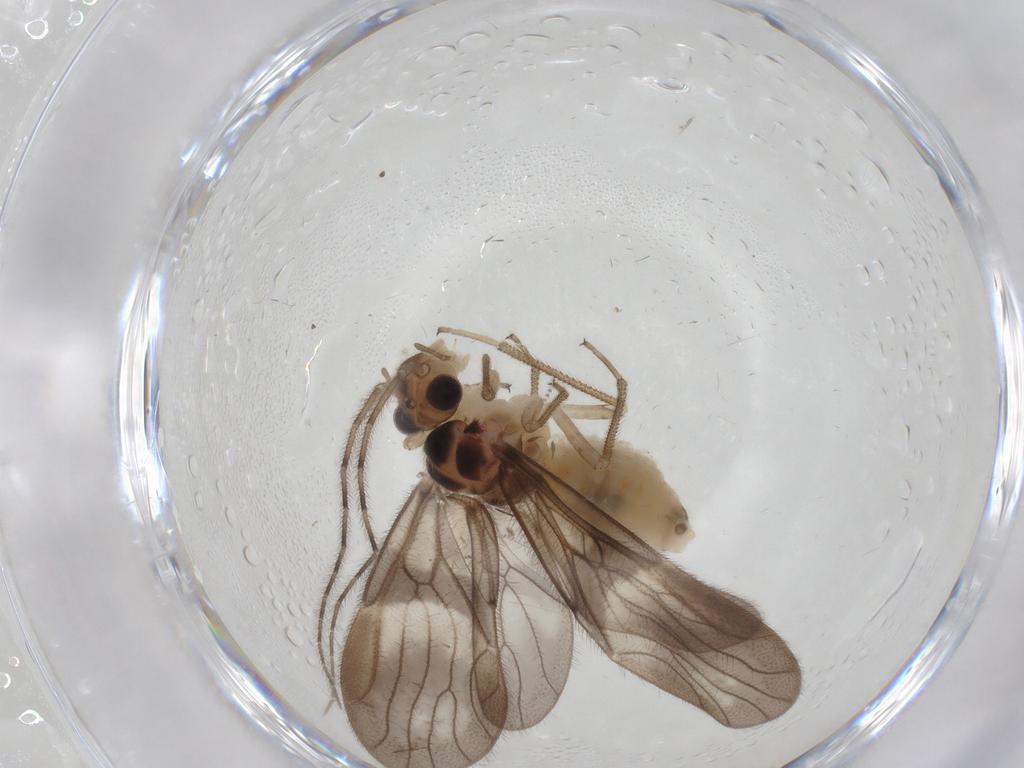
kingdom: Animalia
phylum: Arthropoda
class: Insecta
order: Psocodea
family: Amphipsocidae
